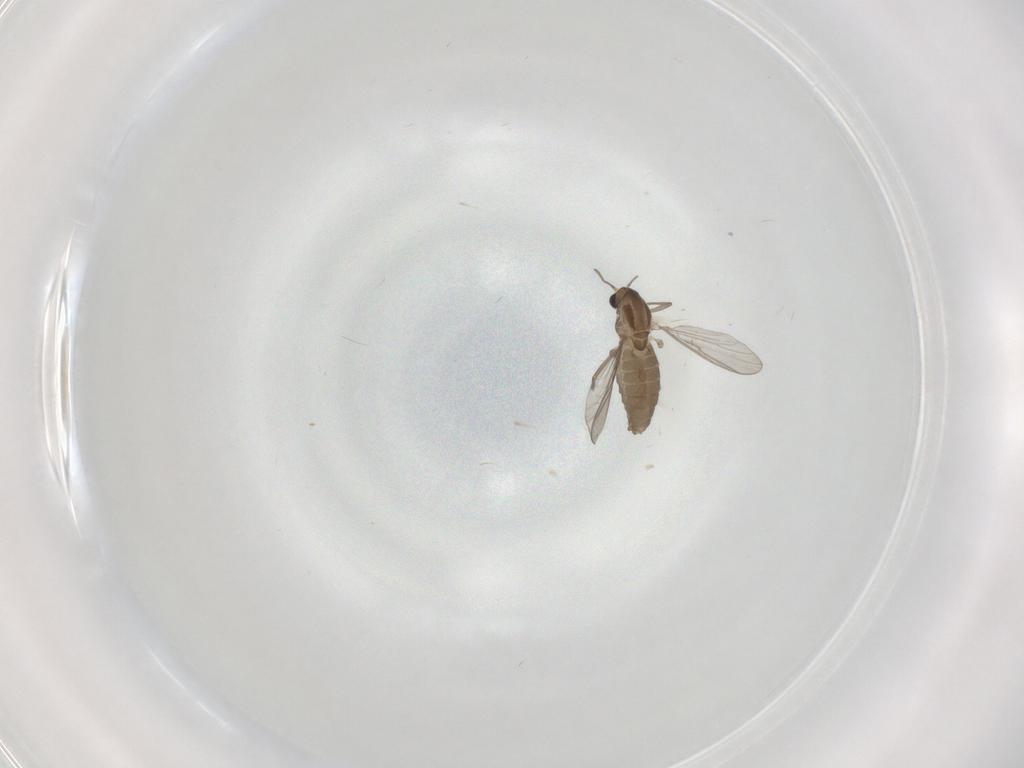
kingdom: Animalia
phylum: Arthropoda
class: Insecta
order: Diptera
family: Chironomidae
